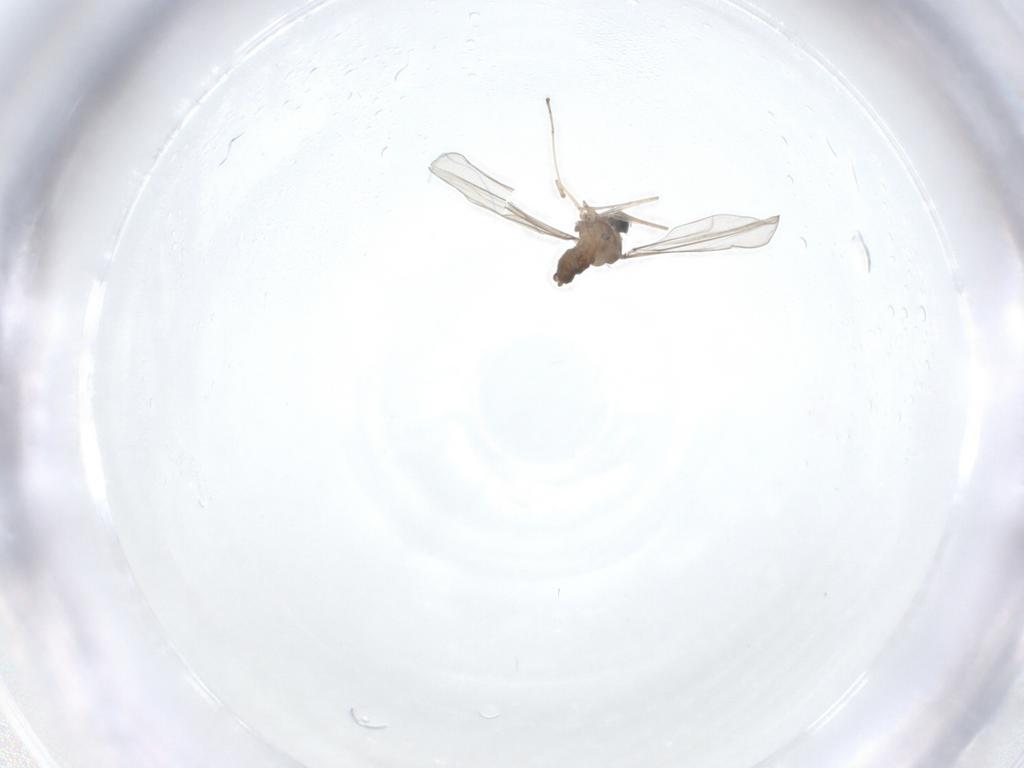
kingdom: Animalia
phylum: Arthropoda
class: Insecta
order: Diptera
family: Cecidomyiidae
